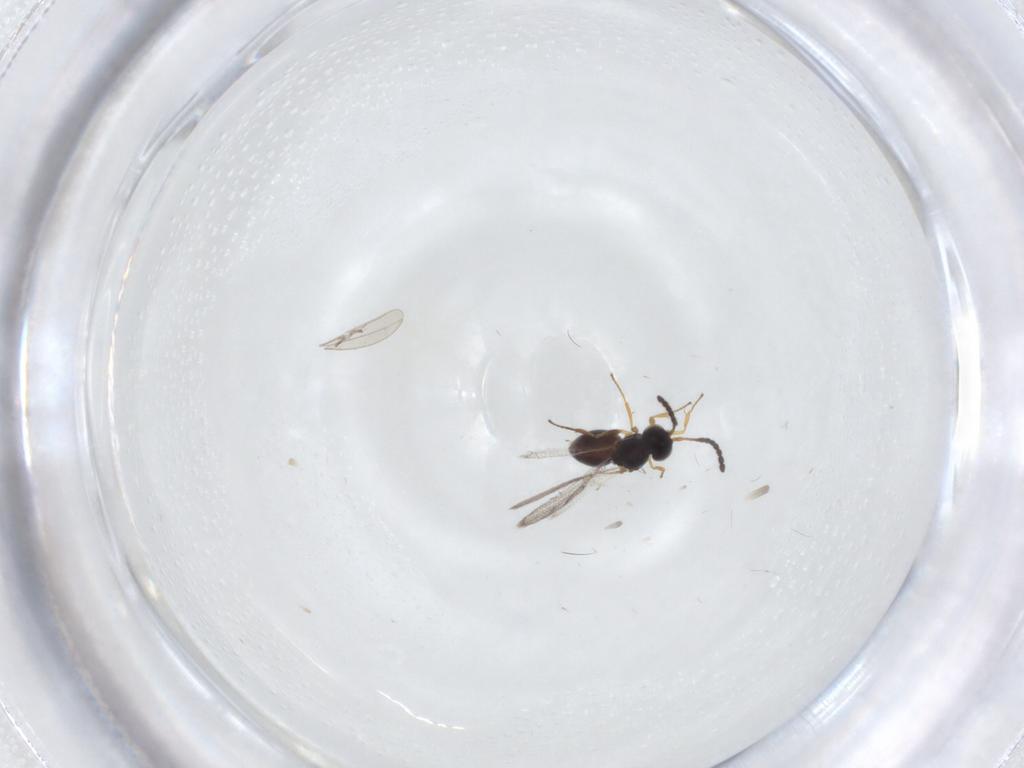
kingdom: Animalia
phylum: Arthropoda
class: Insecta
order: Hymenoptera
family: Figitidae
